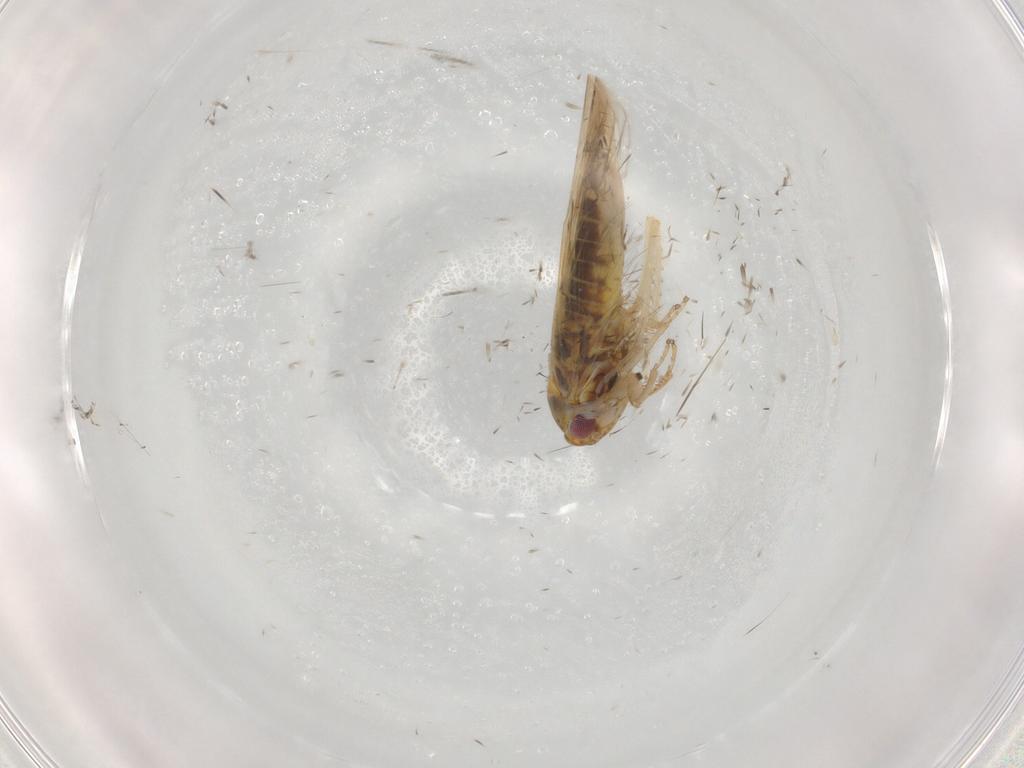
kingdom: Animalia
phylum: Arthropoda
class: Insecta
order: Hemiptera
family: Cicadellidae
